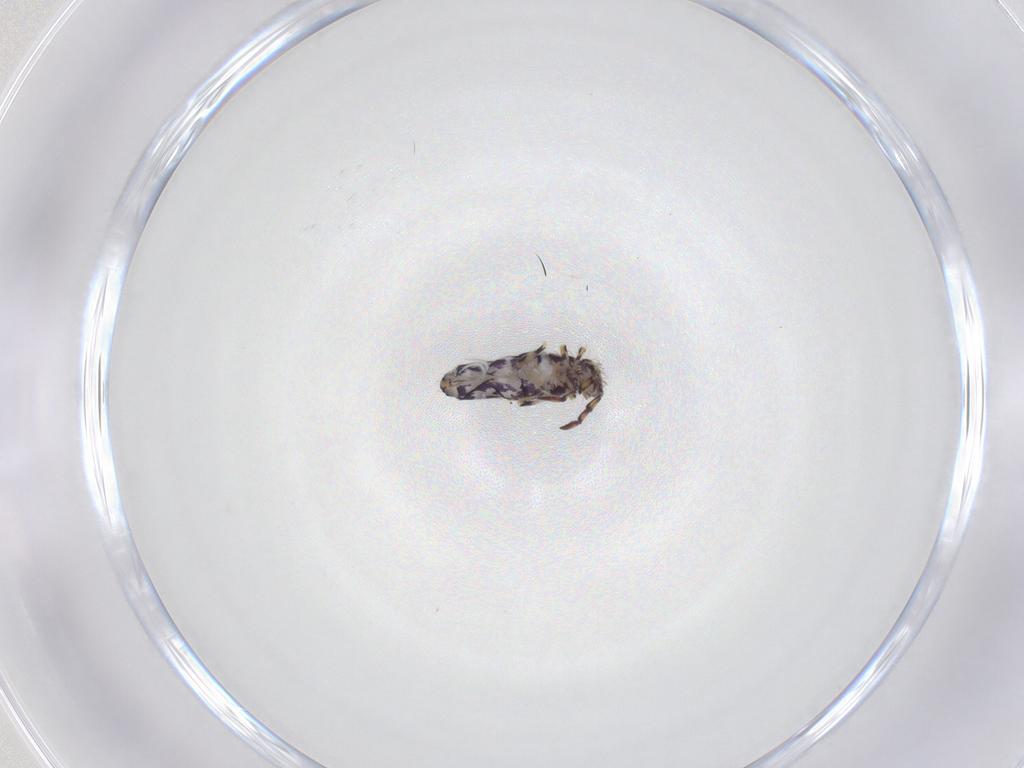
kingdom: Animalia
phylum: Arthropoda
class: Collembola
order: Entomobryomorpha
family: Entomobryidae
